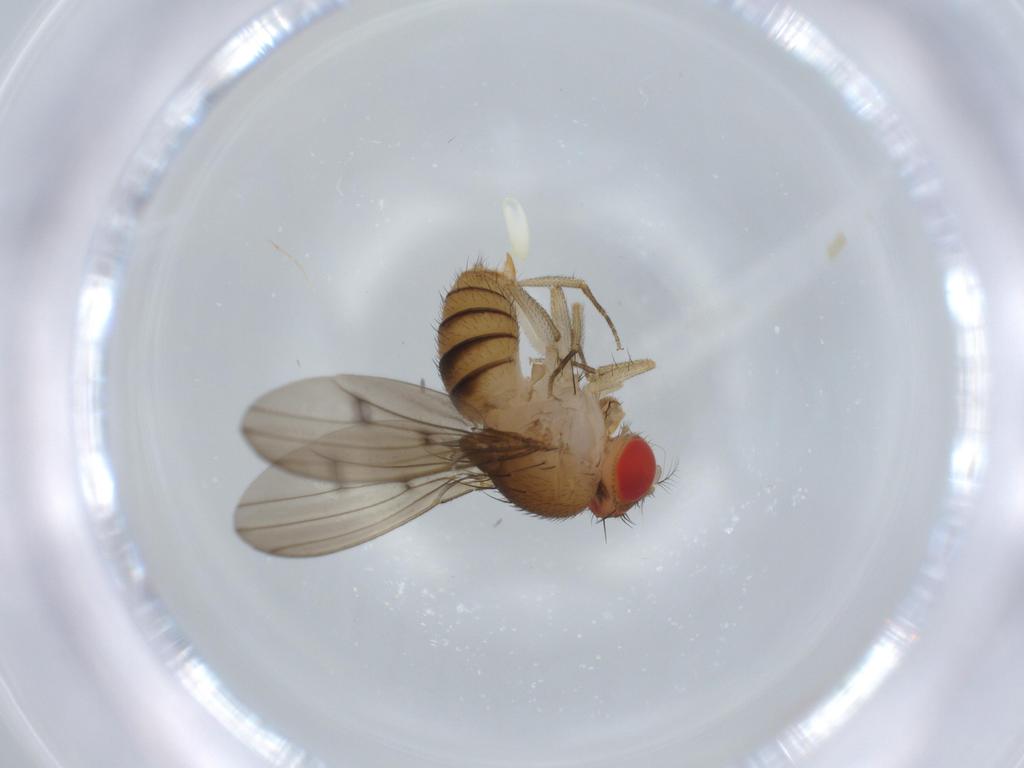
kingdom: Animalia
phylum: Arthropoda
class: Insecta
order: Diptera
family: Drosophilidae
